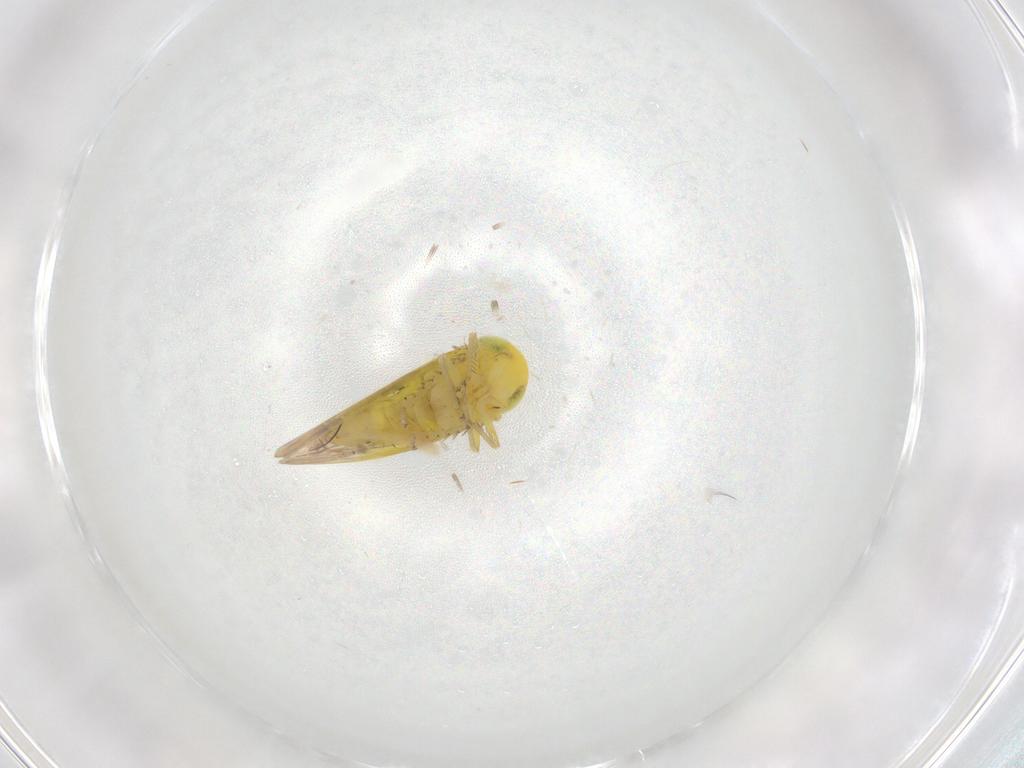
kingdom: Animalia
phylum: Arthropoda
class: Insecta
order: Hemiptera
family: Cicadellidae
